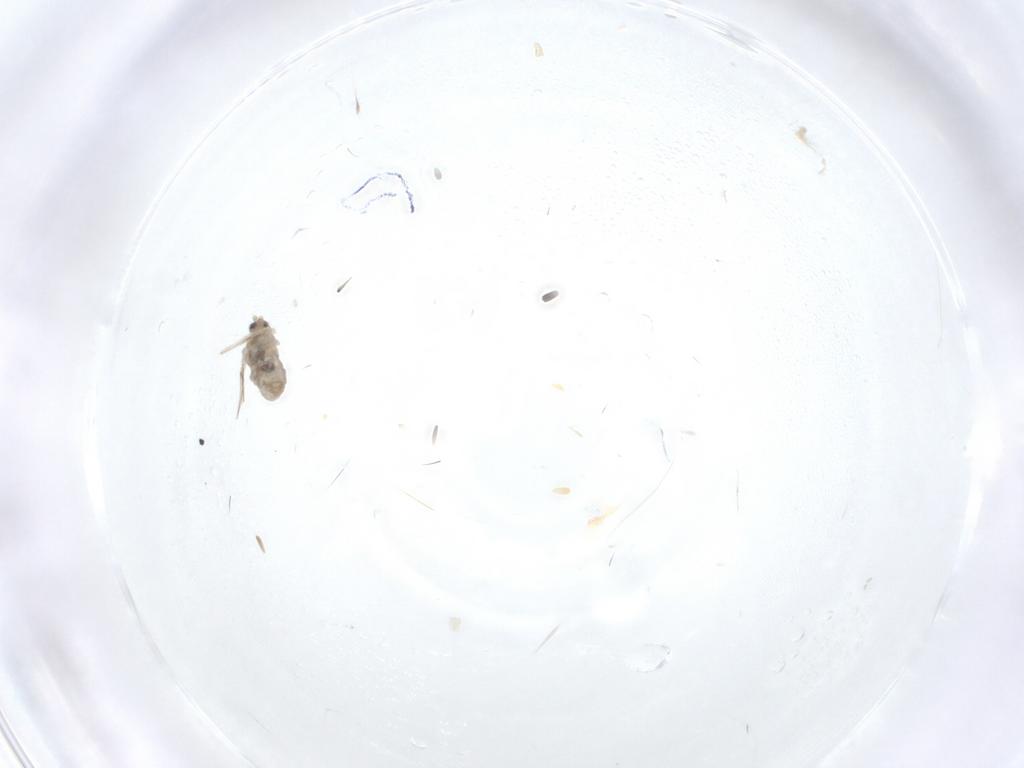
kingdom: Animalia
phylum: Arthropoda
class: Insecta
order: Diptera
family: Cecidomyiidae
